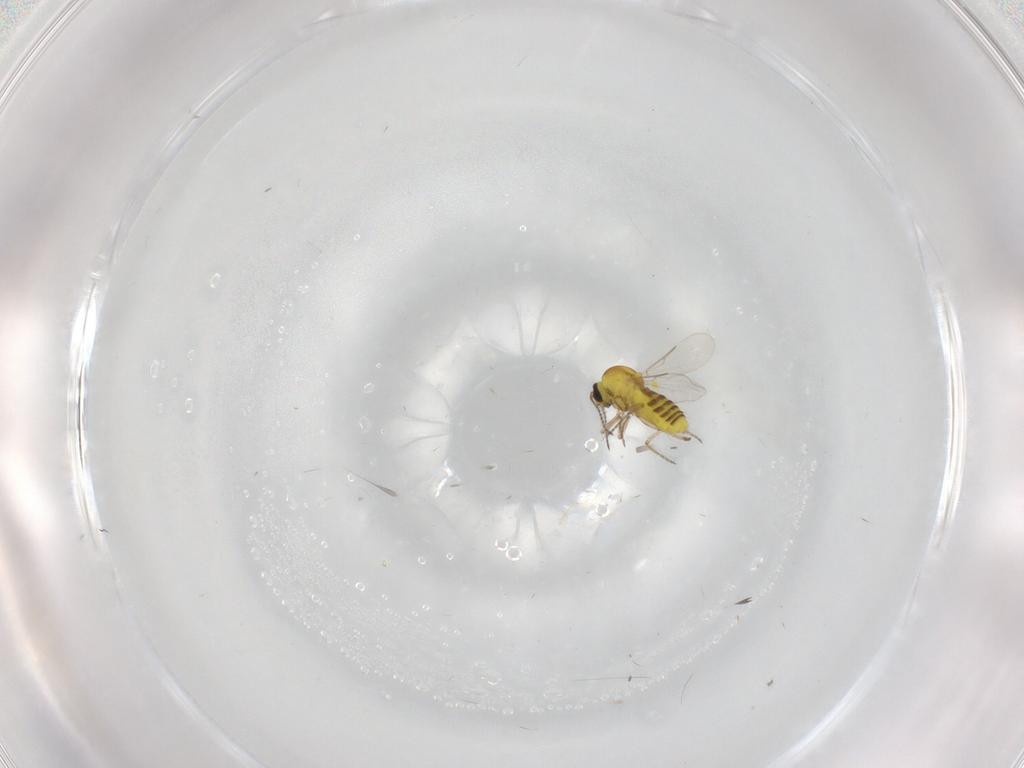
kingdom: Animalia
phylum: Arthropoda
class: Insecta
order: Diptera
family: Ceratopogonidae
